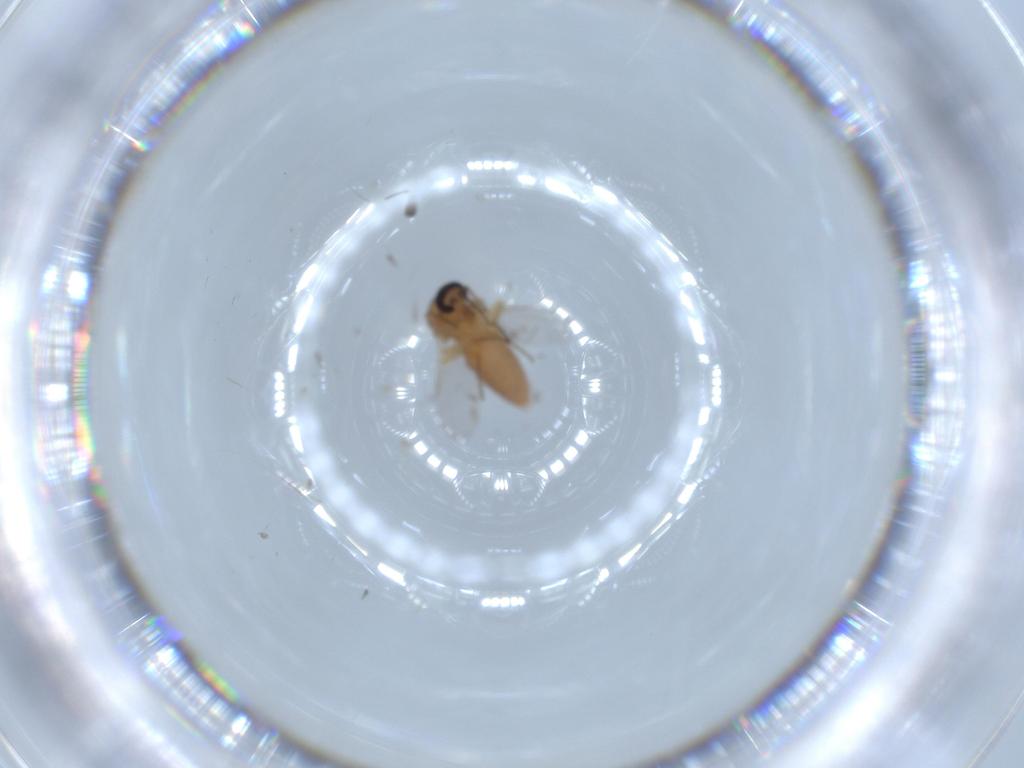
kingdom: Animalia
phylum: Arthropoda
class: Insecta
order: Diptera
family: Ceratopogonidae
